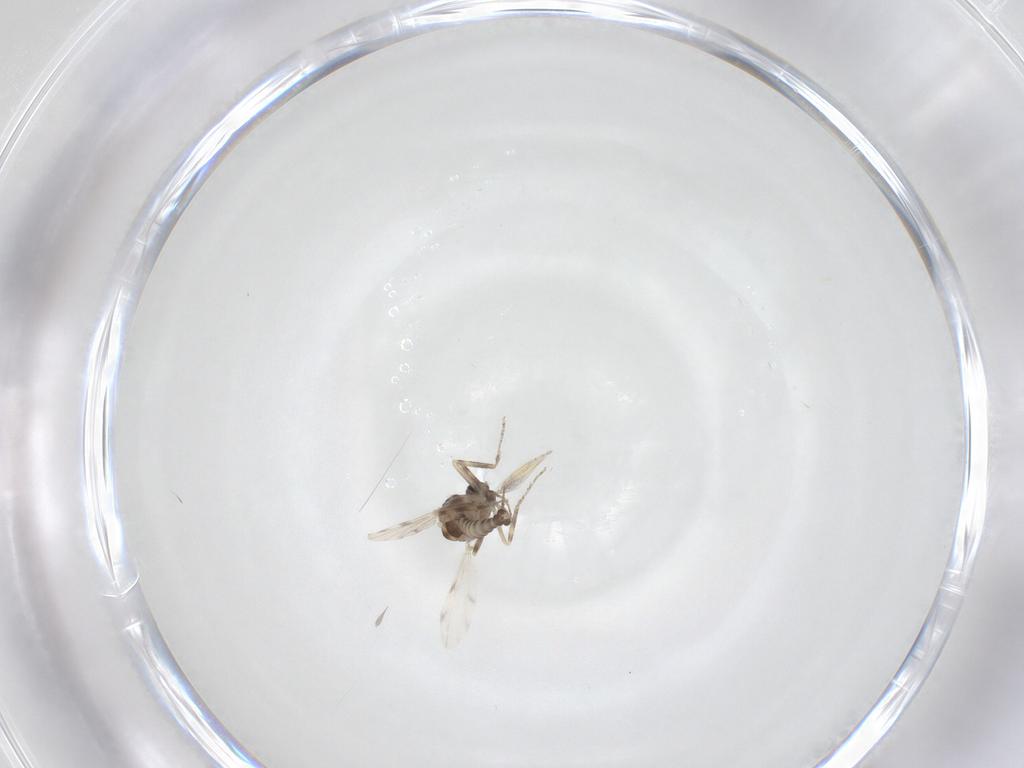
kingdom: Animalia
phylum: Arthropoda
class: Insecta
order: Diptera
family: Ceratopogonidae
